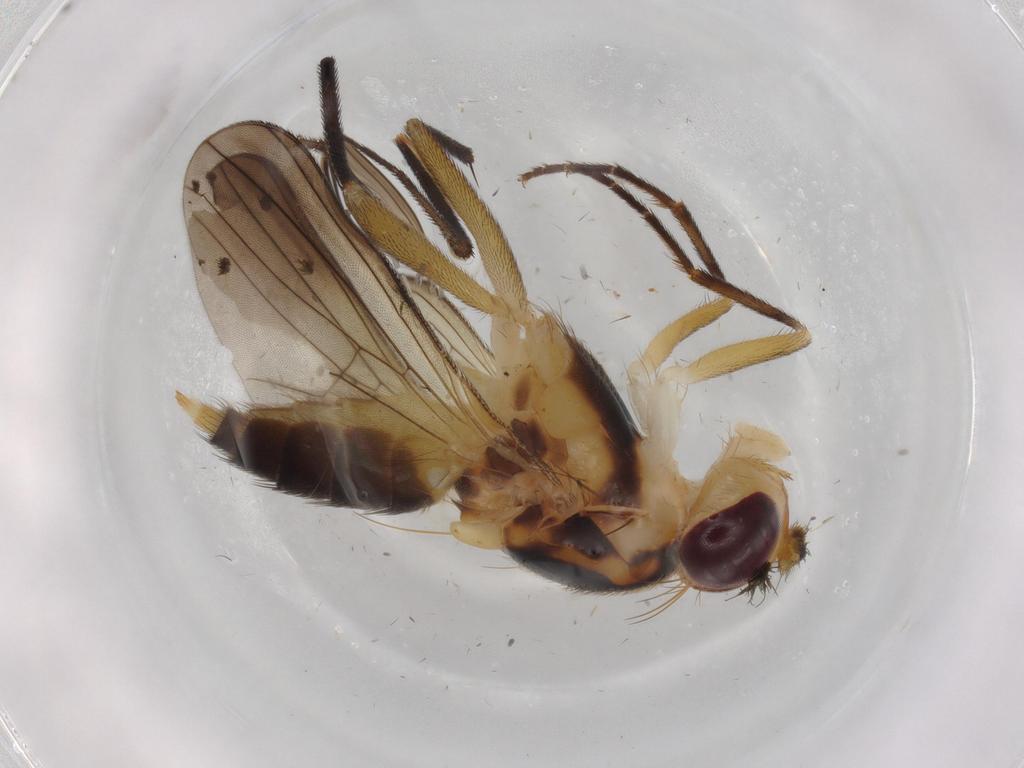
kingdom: Animalia
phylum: Arthropoda
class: Insecta
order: Diptera
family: Clusiidae
